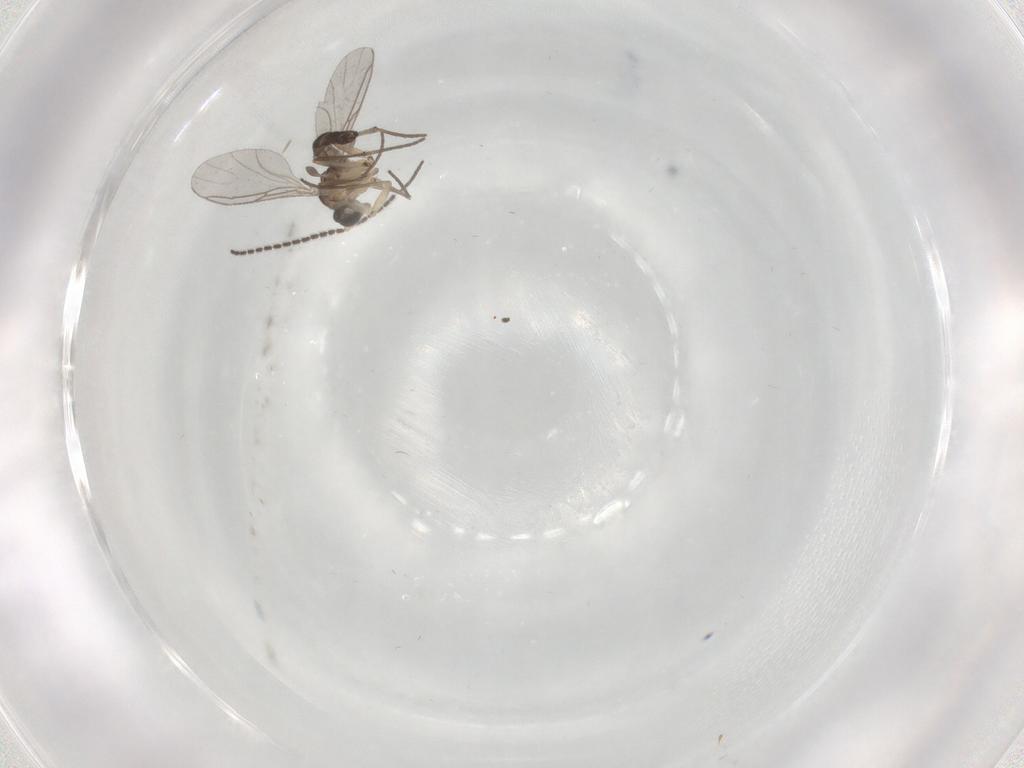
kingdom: Animalia
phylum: Arthropoda
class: Insecta
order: Diptera
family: Sciaridae
